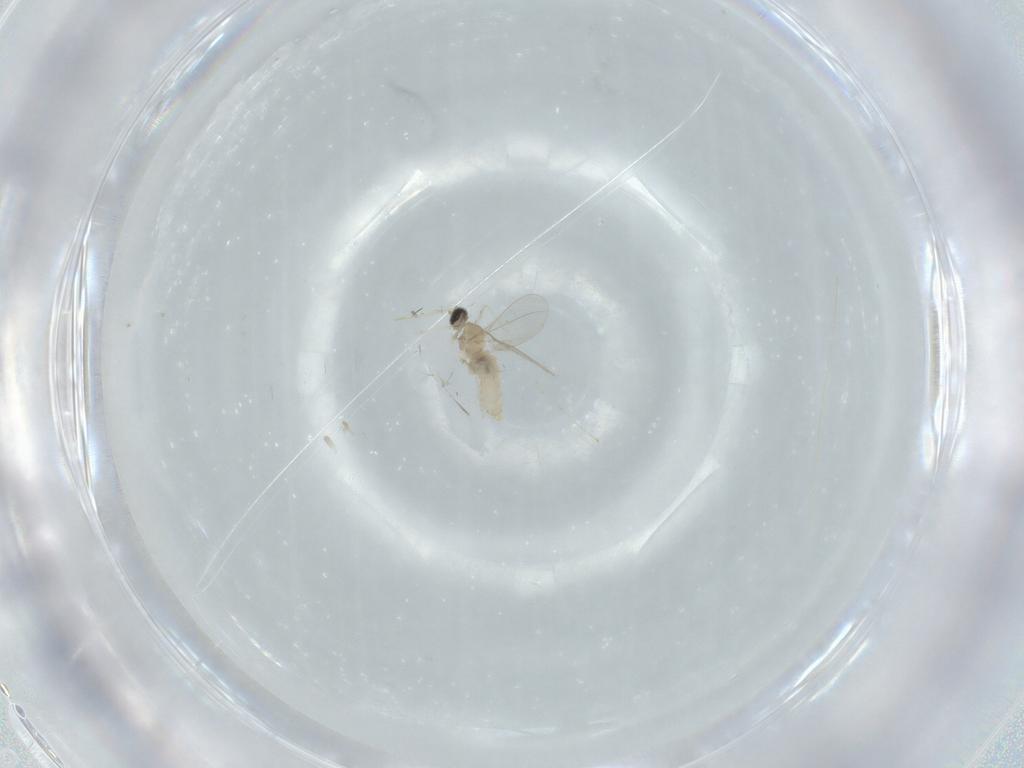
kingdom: Animalia
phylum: Arthropoda
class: Insecta
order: Diptera
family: Cecidomyiidae
